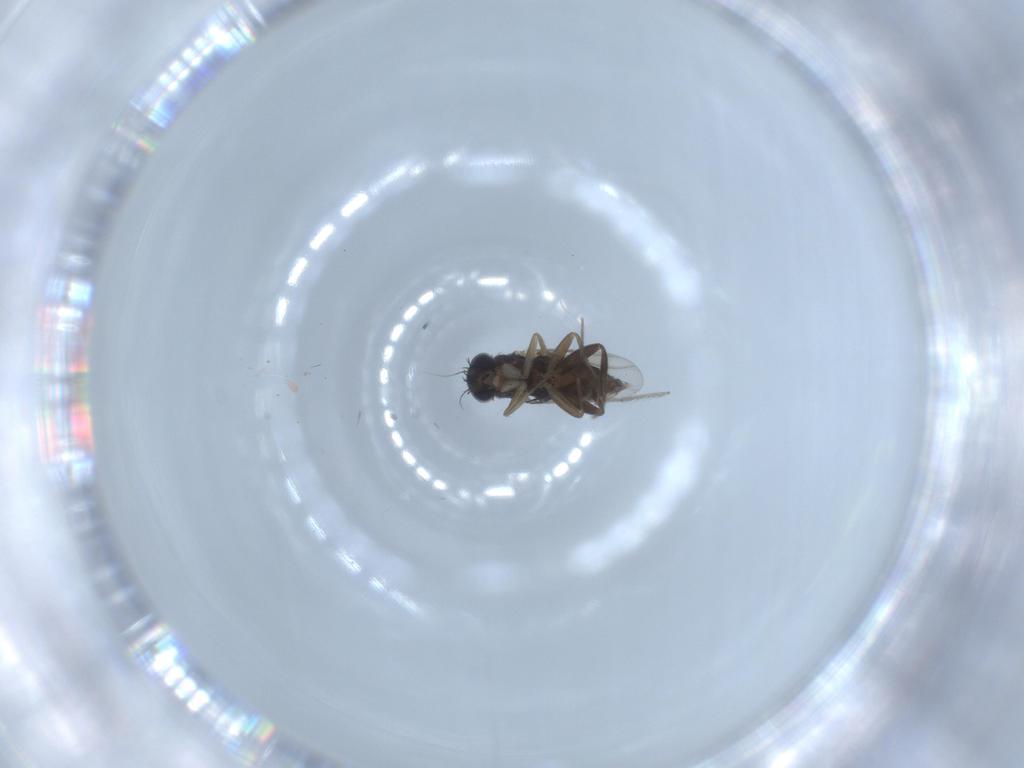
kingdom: Animalia
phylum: Arthropoda
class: Insecta
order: Diptera
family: Phoridae
